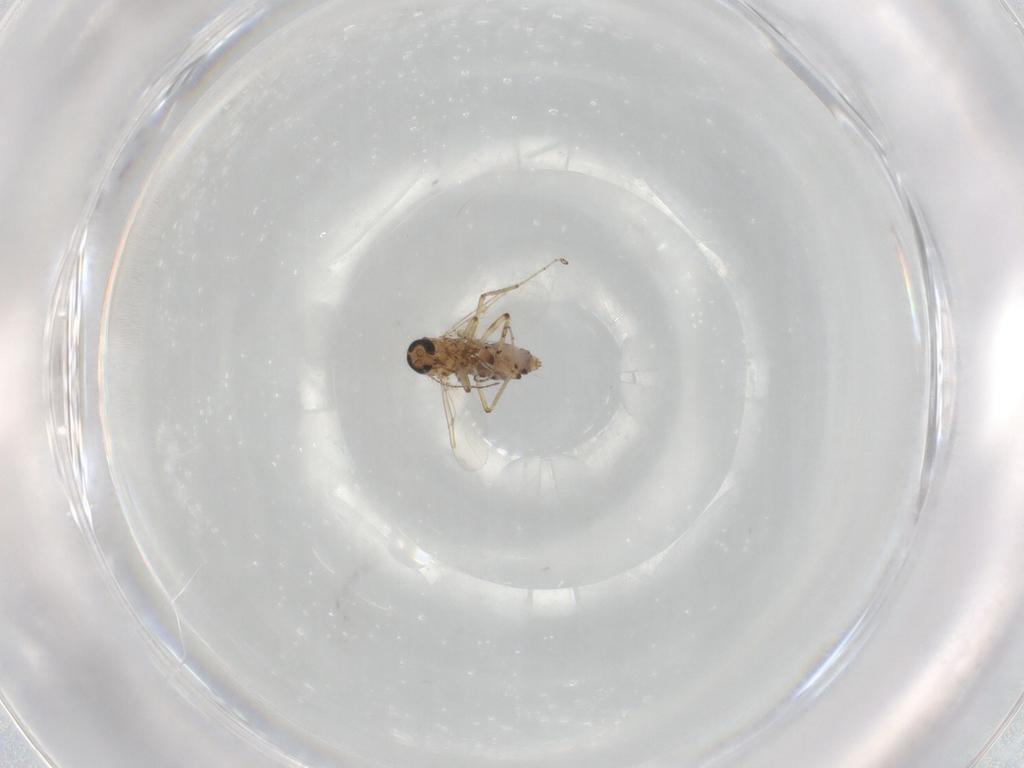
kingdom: Animalia
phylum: Arthropoda
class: Insecta
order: Diptera
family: Ceratopogonidae
